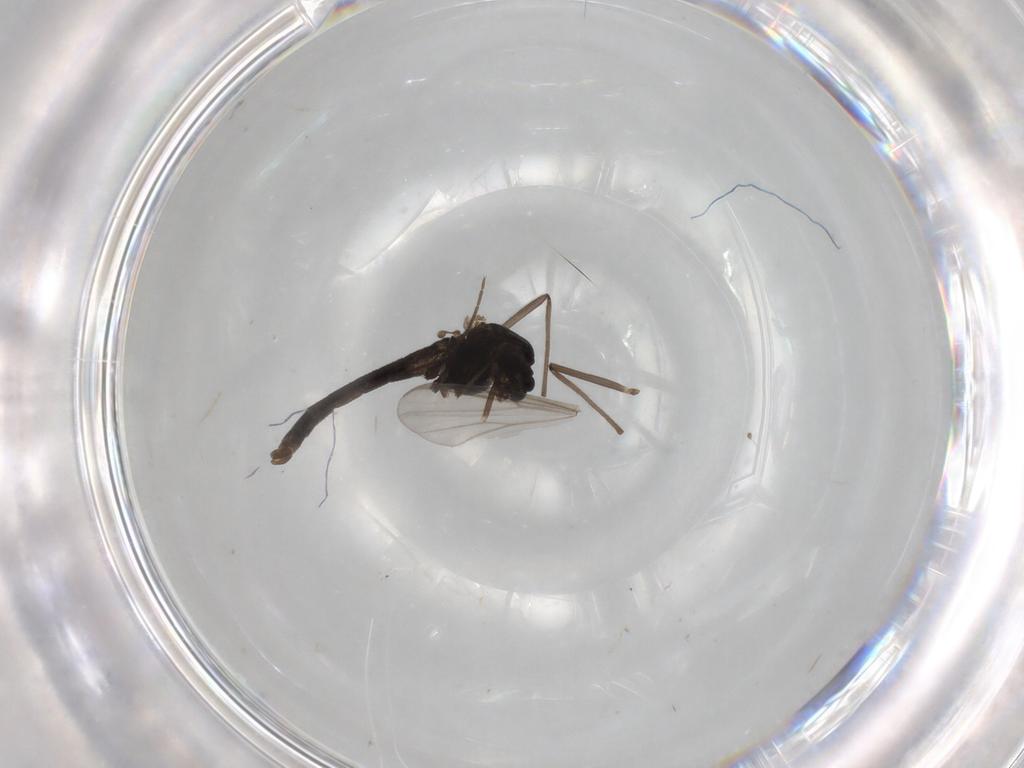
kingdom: Animalia
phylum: Arthropoda
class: Insecta
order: Diptera
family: Chironomidae
